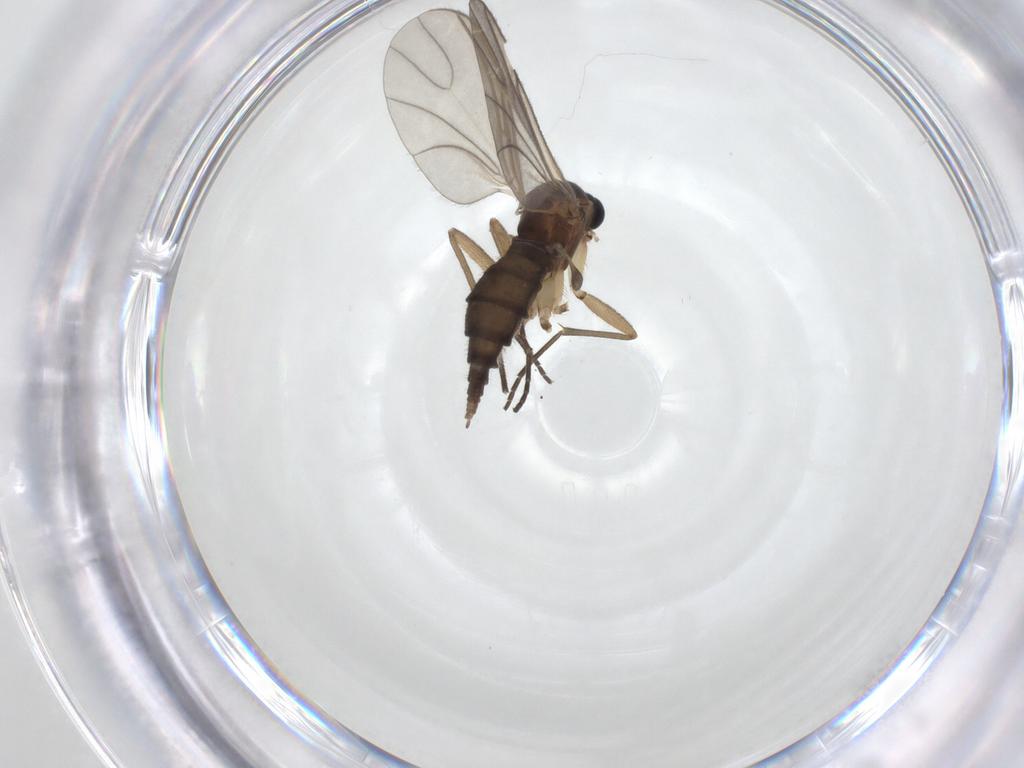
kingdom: Animalia
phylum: Arthropoda
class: Insecta
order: Diptera
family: Sciaridae
